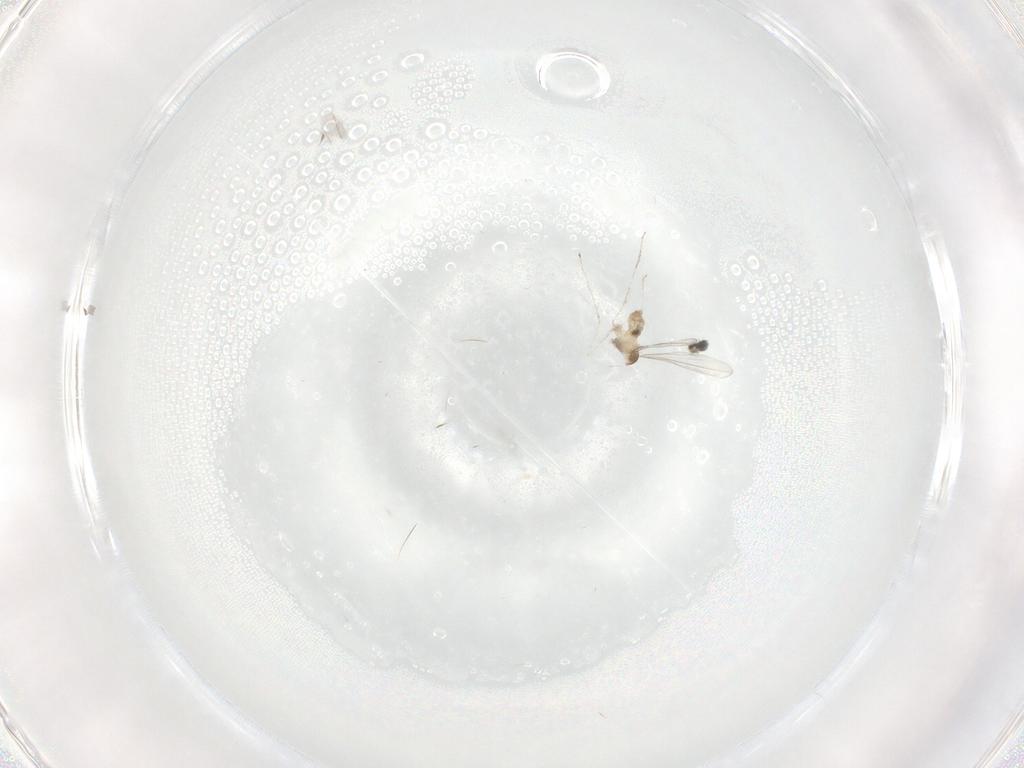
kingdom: Animalia
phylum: Arthropoda
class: Insecta
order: Diptera
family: Cecidomyiidae
